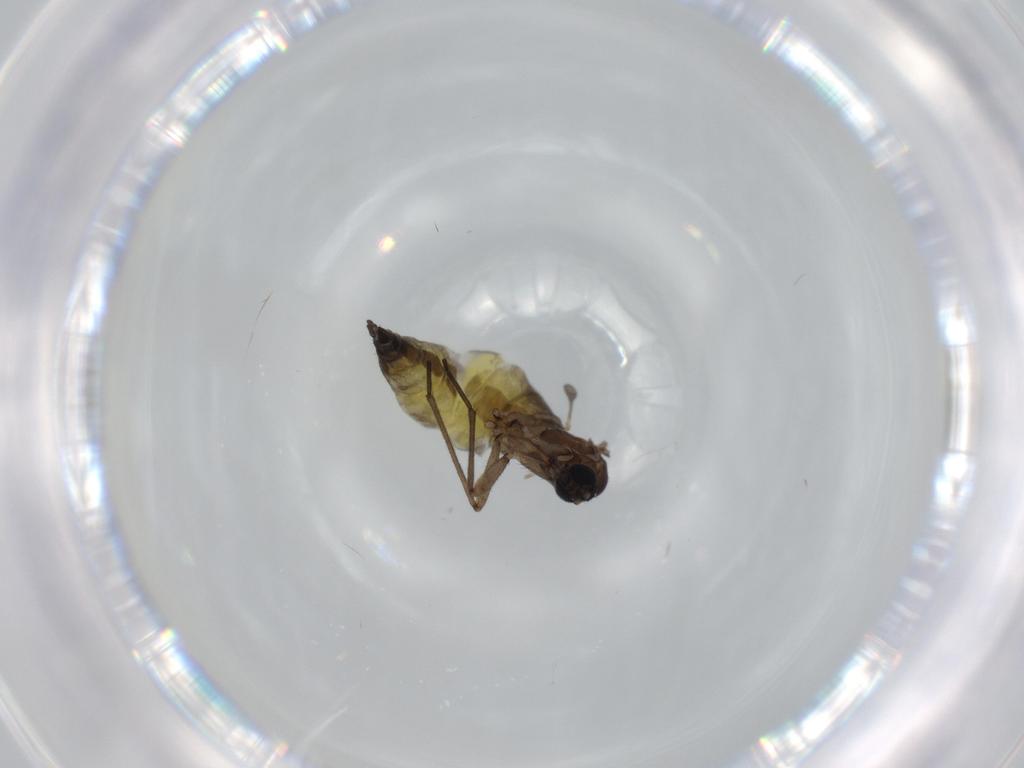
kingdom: Animalia
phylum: Arthropoda
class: Insecta
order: Diptera
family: Sciaridae
